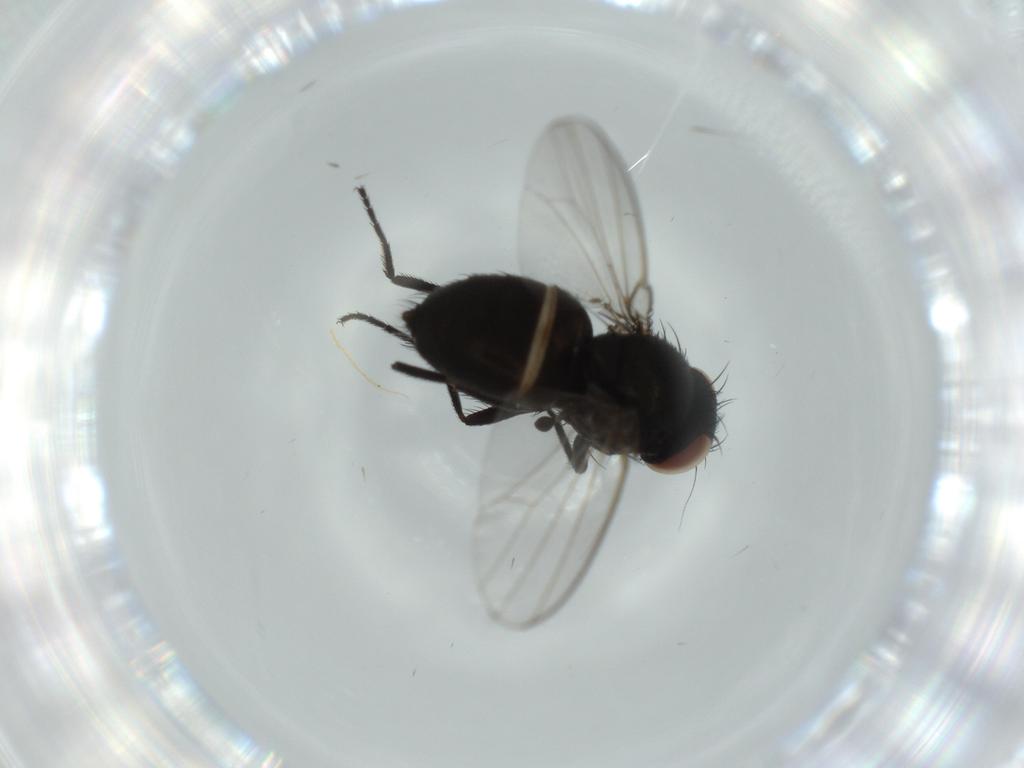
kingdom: Animalia
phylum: Arthropoda
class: Insecta
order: Diptera
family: Milichiidae
